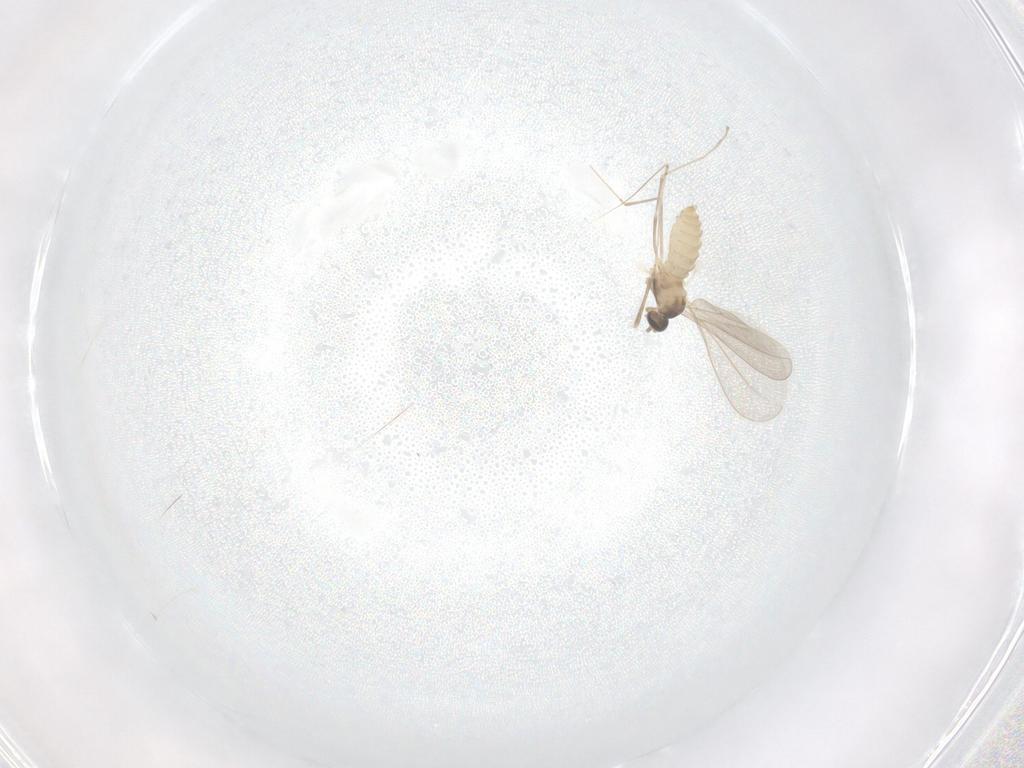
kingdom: Animalia
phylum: Arthropoda
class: Insecta
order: Diptera
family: Cecidomyiidae
